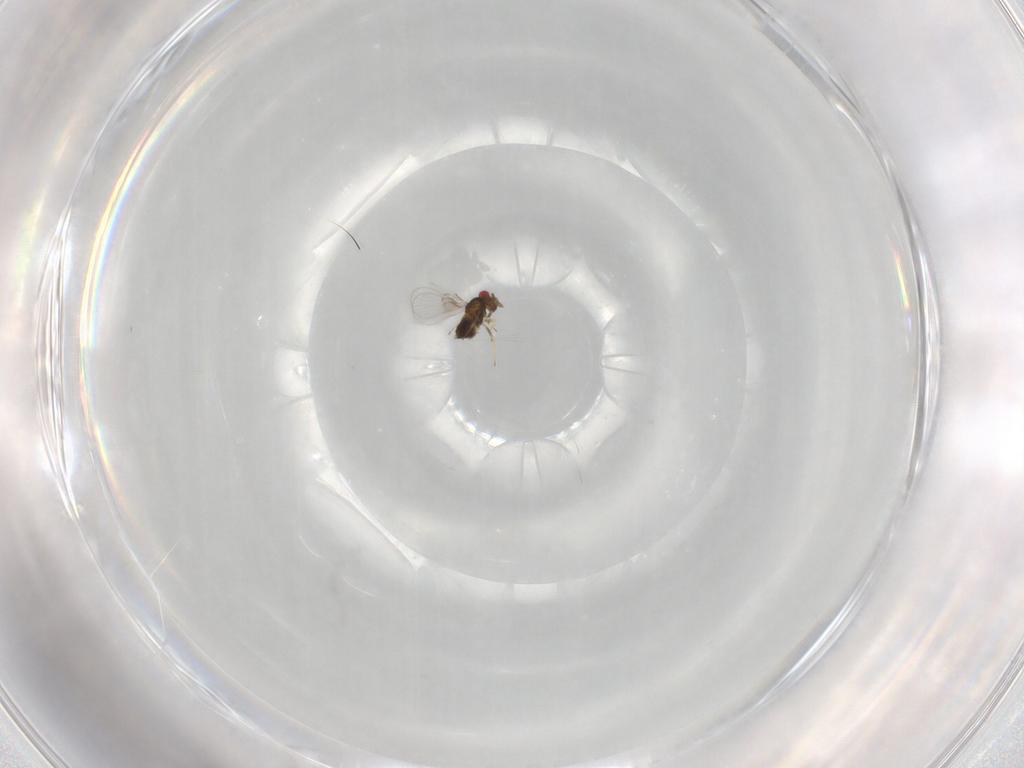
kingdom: Animalia
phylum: Arthropoda
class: Insecta
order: Hymenoptera
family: Trichogrammatidae
